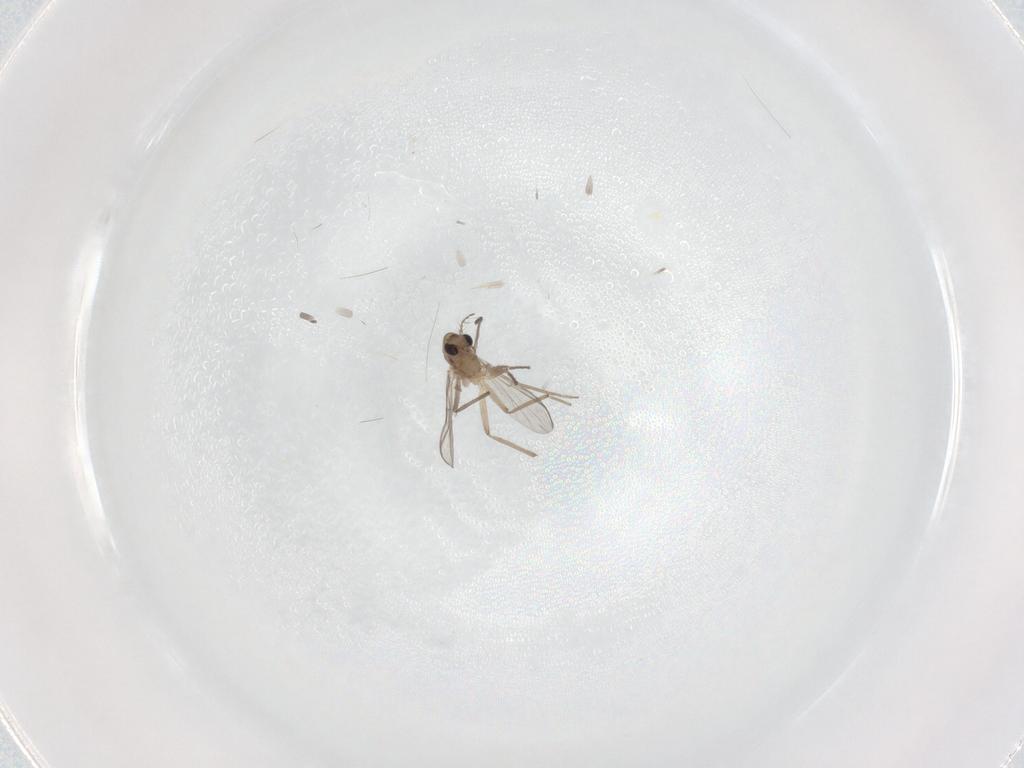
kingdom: Animalia
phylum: Arthropoda
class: Insecta
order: Diptera
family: Chironomidae
